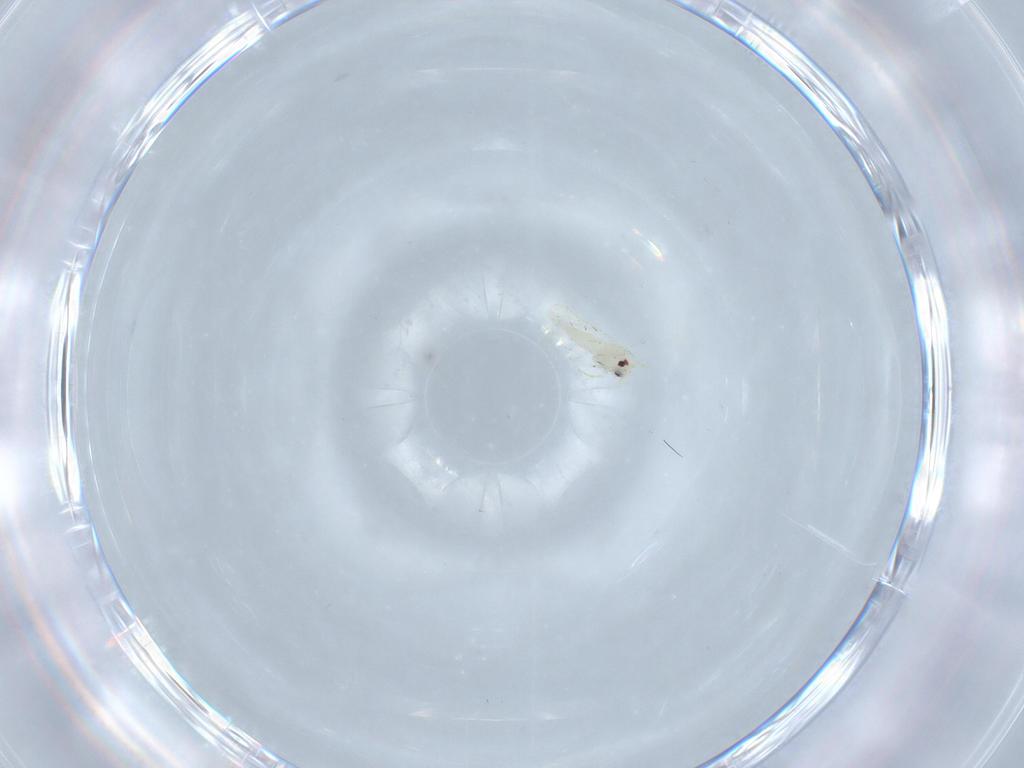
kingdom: Animalia
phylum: Arthropoda
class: Insecta
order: Hemiptera
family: Aleyrodidae
